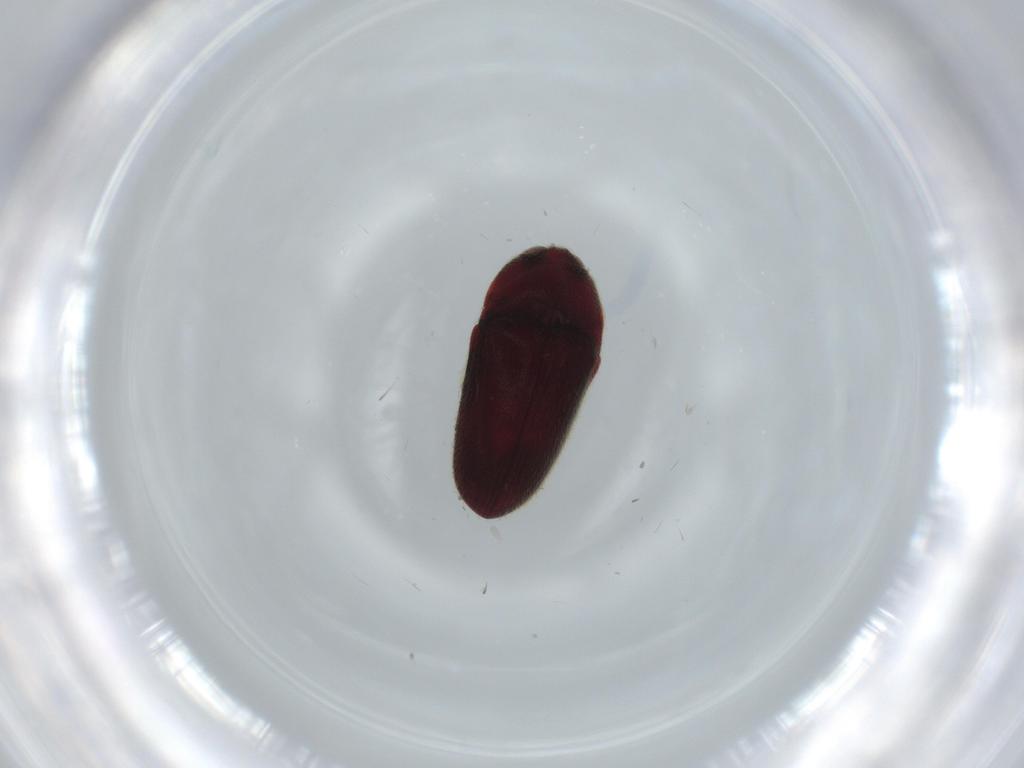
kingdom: Animalia
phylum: Arthropoda
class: Insecta
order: Coleoptera
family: Throscidae
